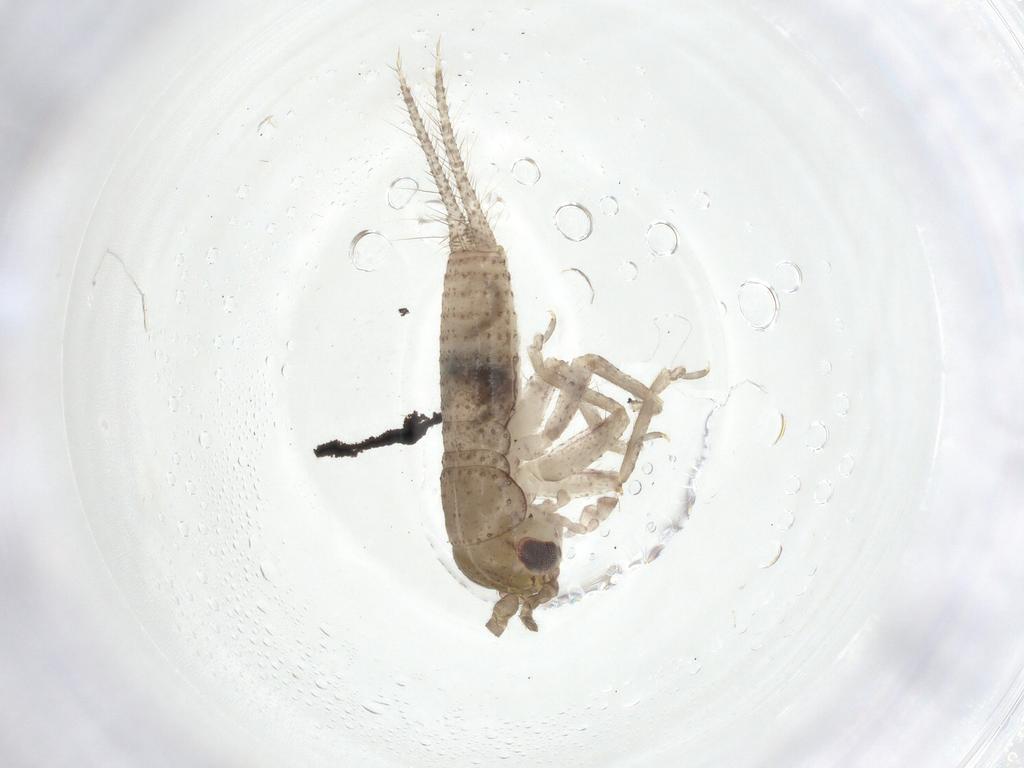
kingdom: Animalia
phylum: Arthropoda
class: Insecta
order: Orthoptera
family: Gryllidae
